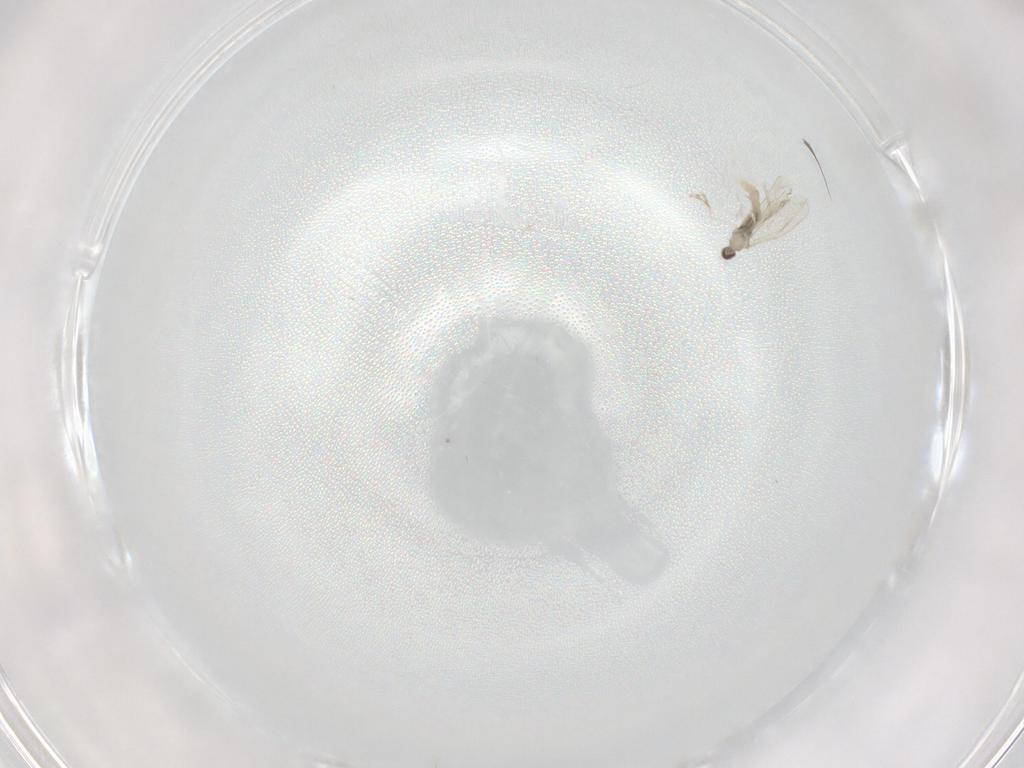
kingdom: Animalia
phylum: Arthropoda
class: Insecta
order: Diptera
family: Cecidomyiidae
